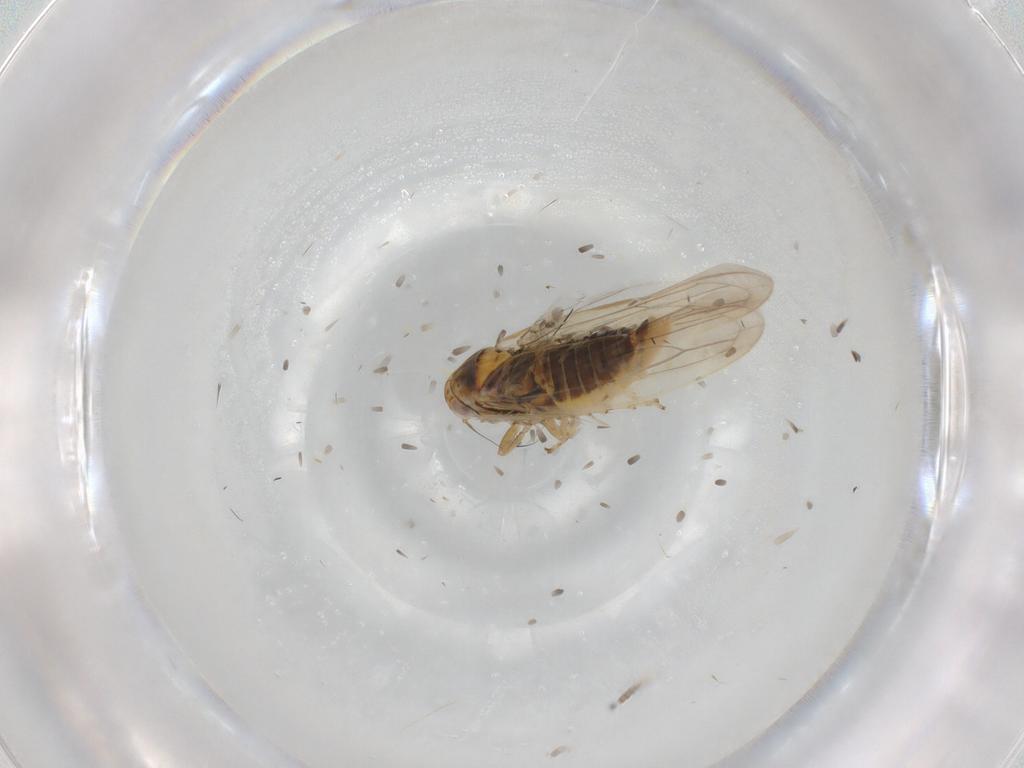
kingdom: Animalia
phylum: Arthropoda
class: Insecta
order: Hemiptera
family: Cicadellidae
